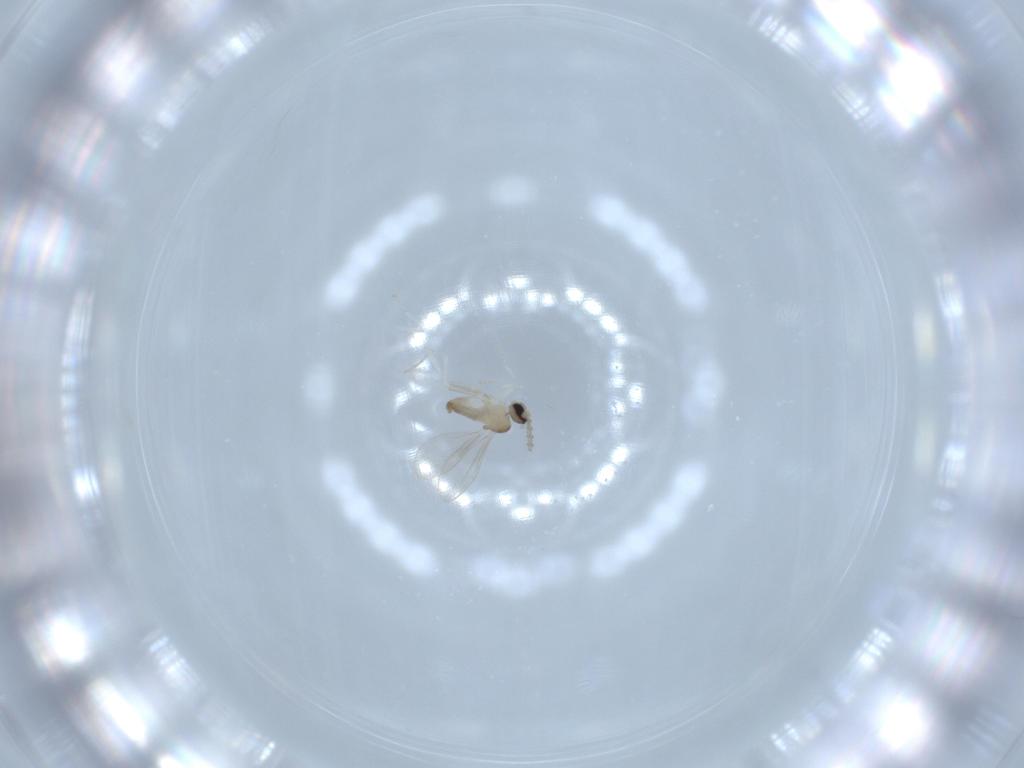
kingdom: Animalia
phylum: Arthropoda
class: Insecta
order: Diptera
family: Cecidomyiidae
